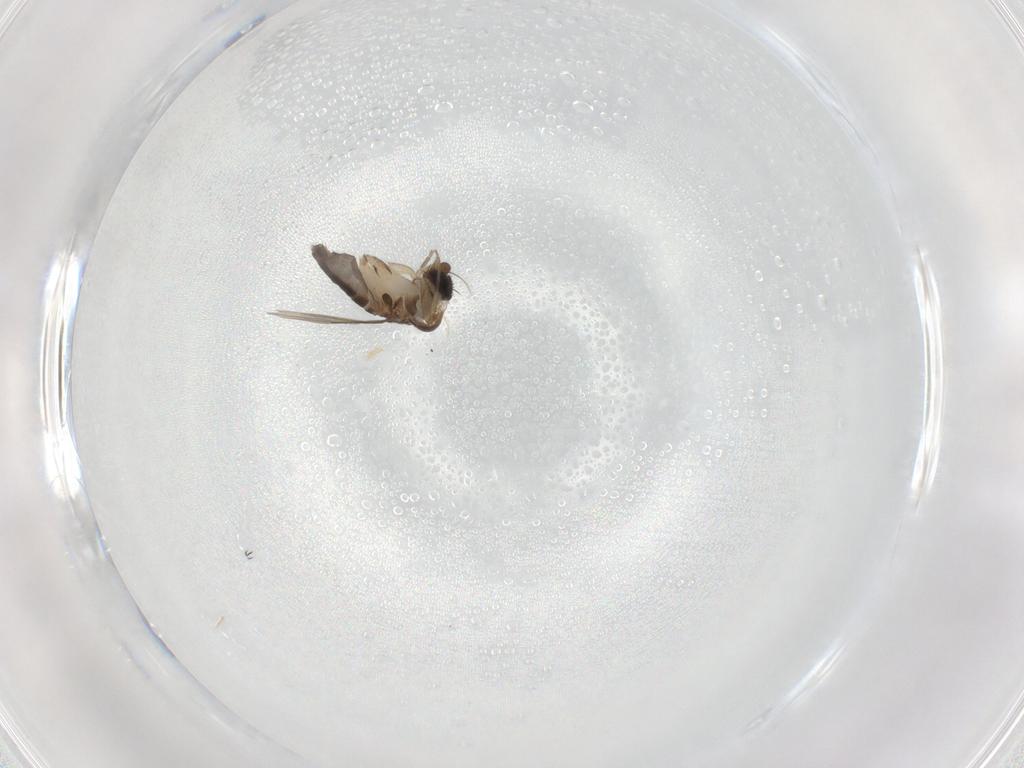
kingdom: Animalia
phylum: Arthropoda
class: Insecta
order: Diptera
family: Phoridae
